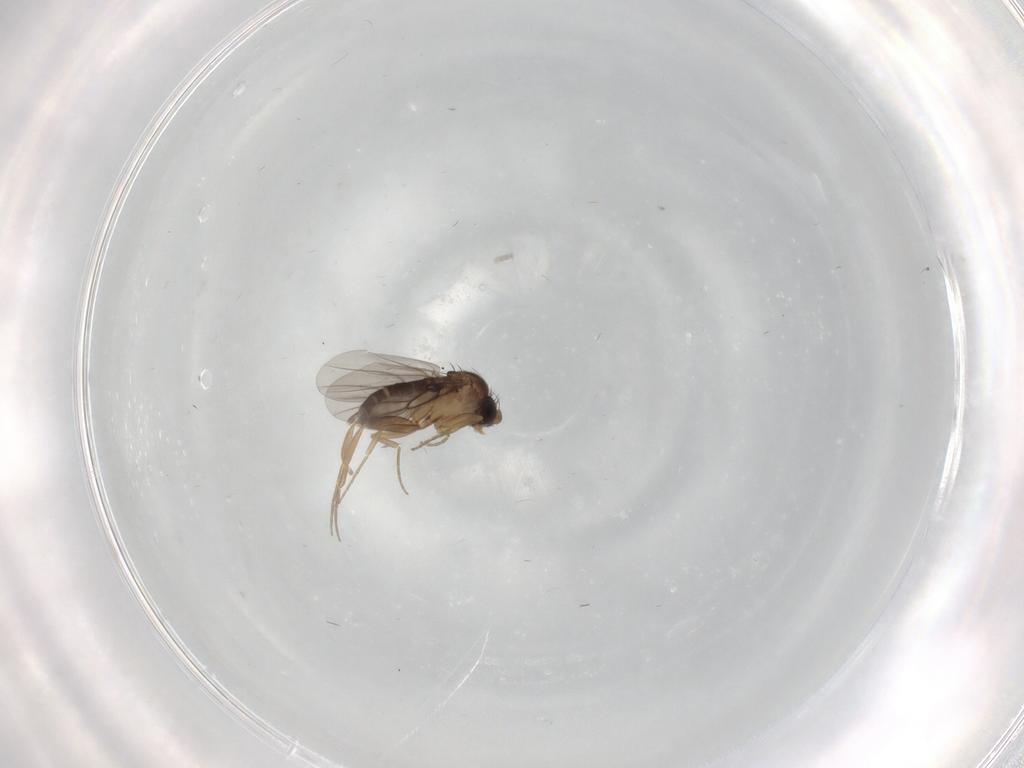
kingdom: Animalia
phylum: Arthropoda
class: Insecta
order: Diptera
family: Phoridae
